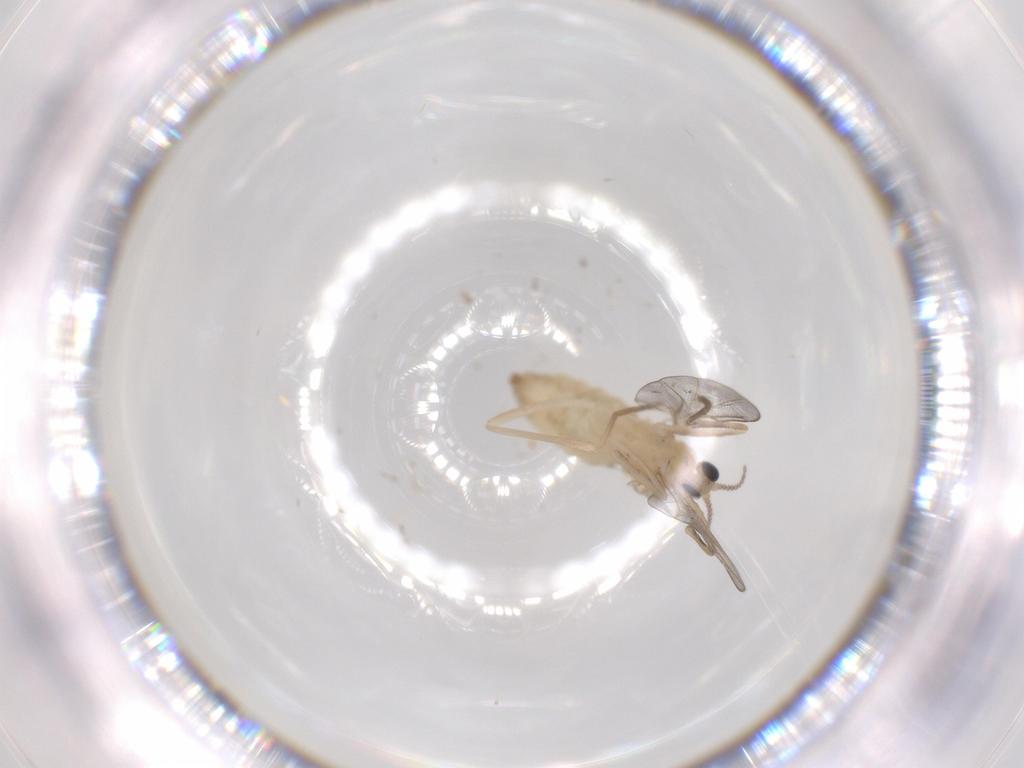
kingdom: Animalia
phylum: Arthropoda
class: Insecta
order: Diptera
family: Cecidomyiidae
